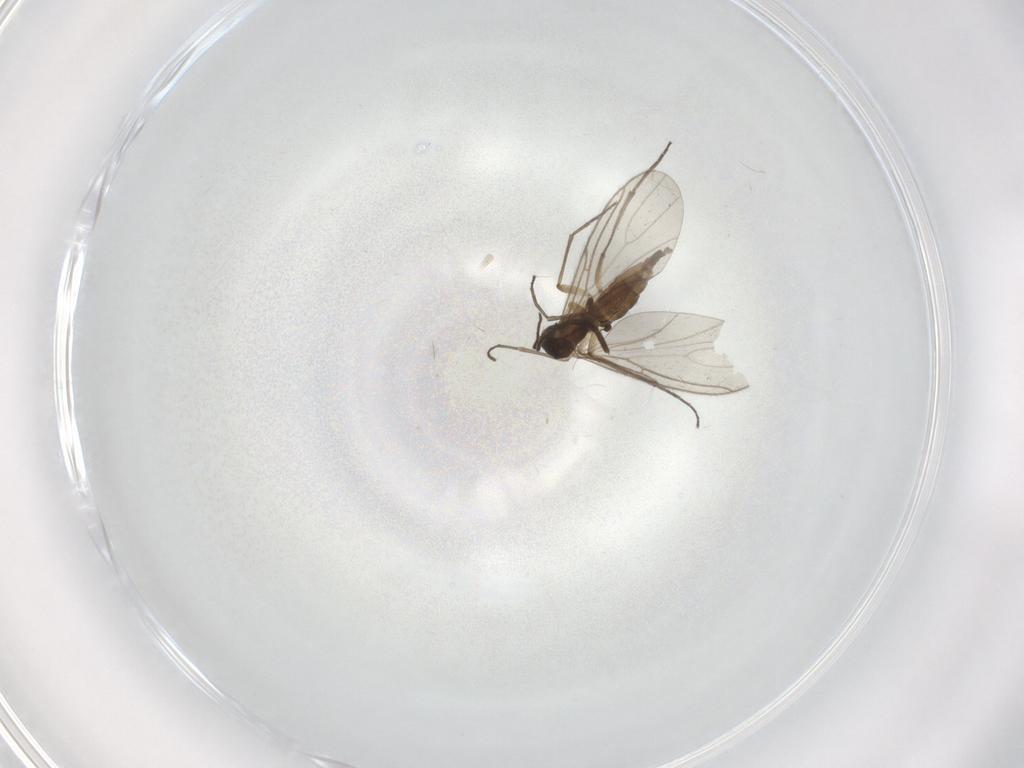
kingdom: Animalia
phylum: Arthropoda
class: Insecta
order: Diptera
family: Sciaridae
